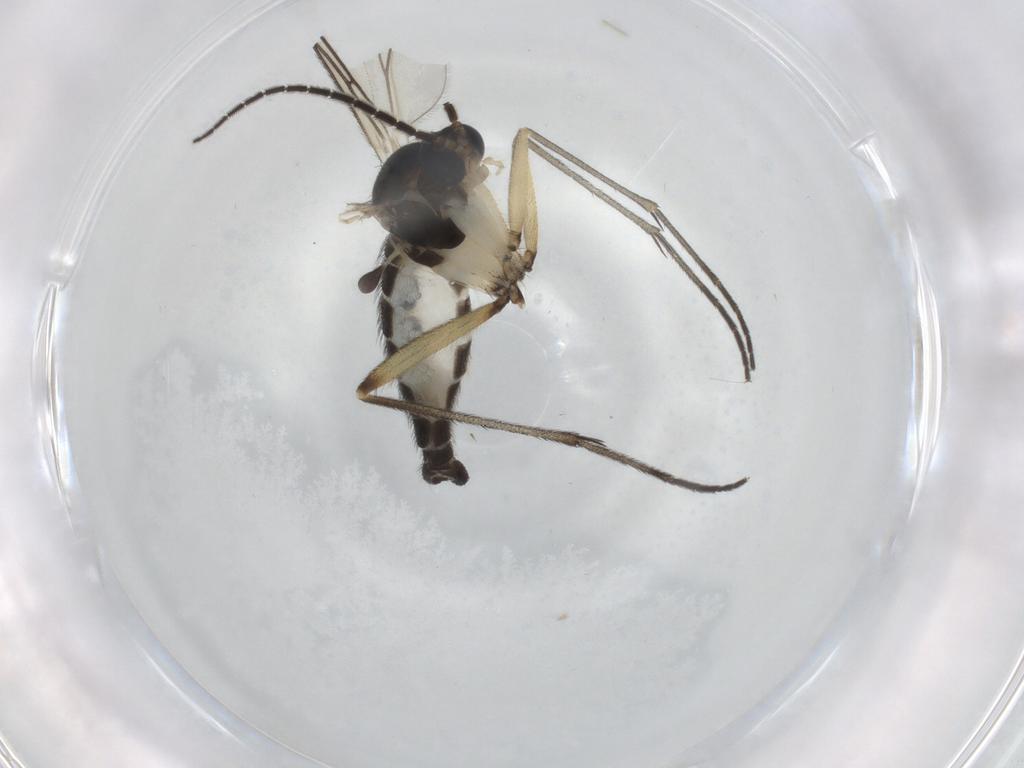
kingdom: Animalia
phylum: Arthropoda
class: Insecta
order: Diptera
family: Sciaridae
